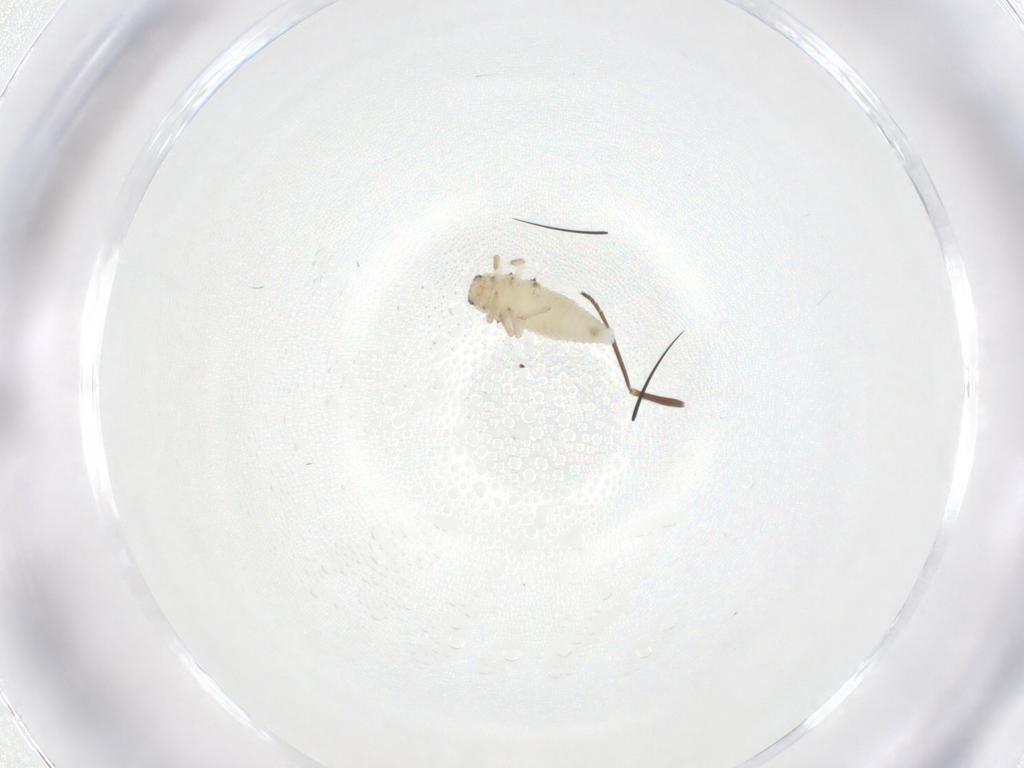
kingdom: Animalia
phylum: Arthropoda
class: Insecta
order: Coleoptera
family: Coccinellidae
